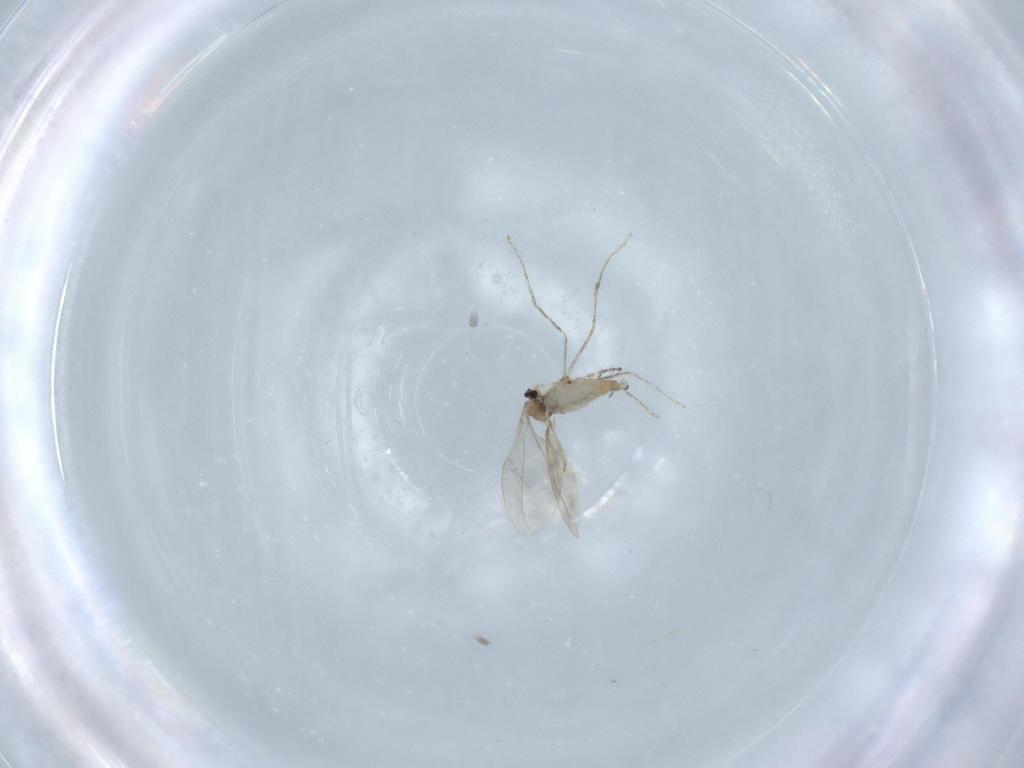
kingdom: Animalia
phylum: Arthropoda
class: Insecta
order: Diptera
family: Cecidomyiidae
